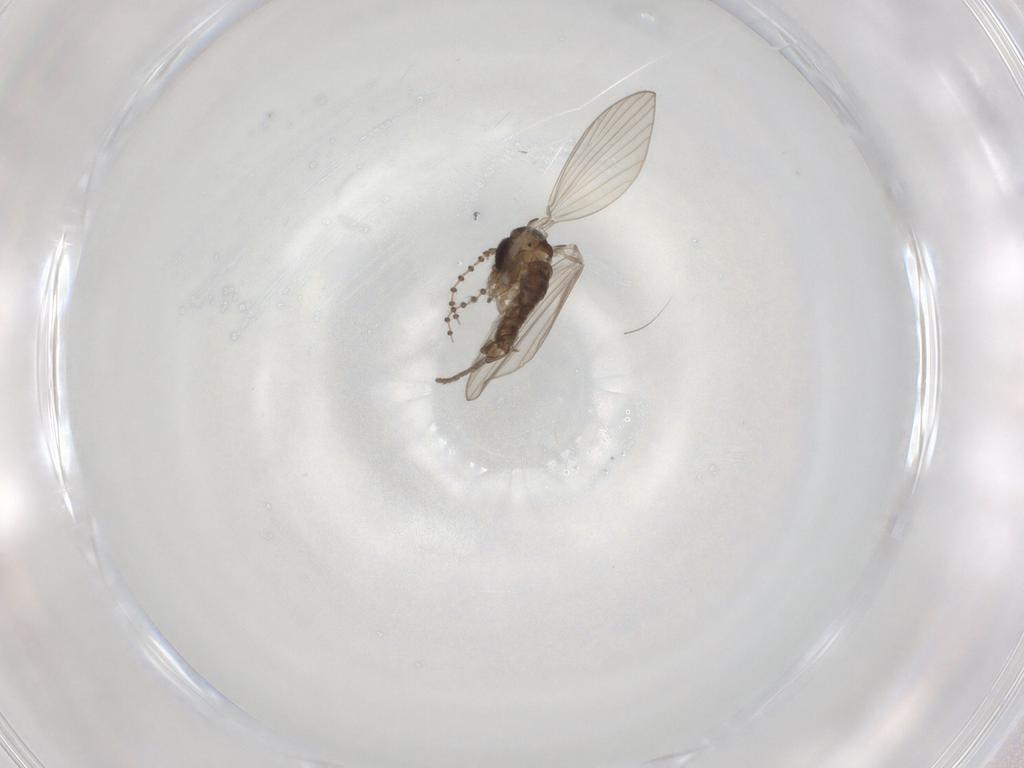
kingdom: Animalia
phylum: Arthropoda
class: Insecta
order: Diptera
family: Psychodidae
